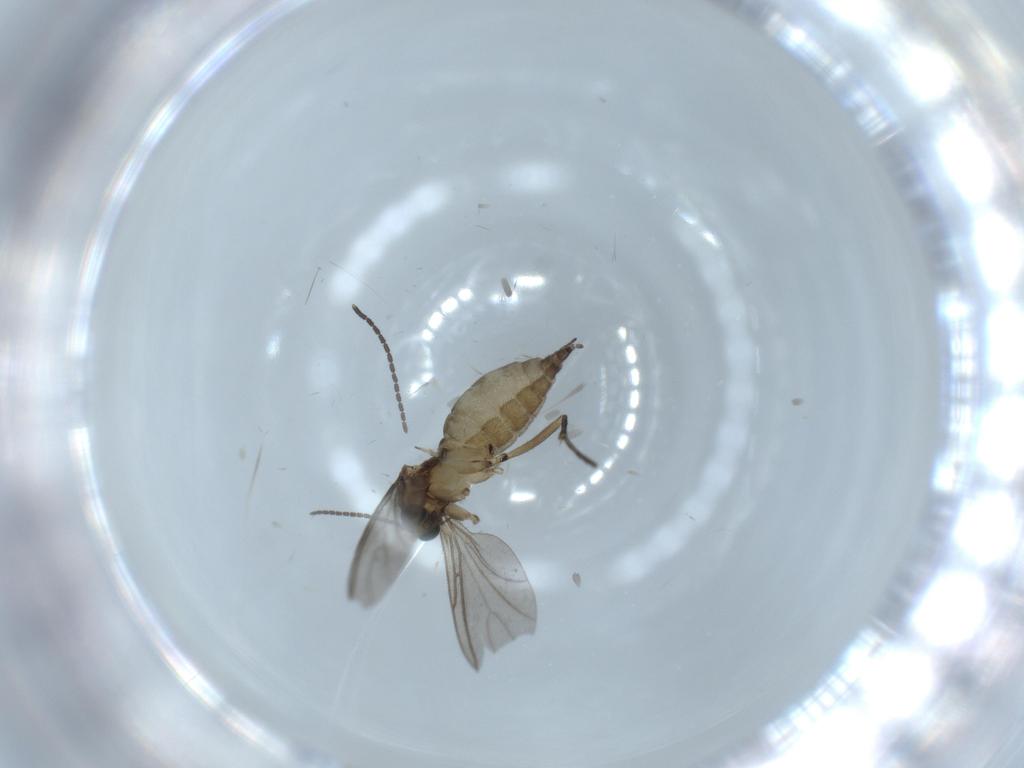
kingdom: Animalia
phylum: Arthropoda
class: Insecta
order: Diptera
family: Sciaridae
